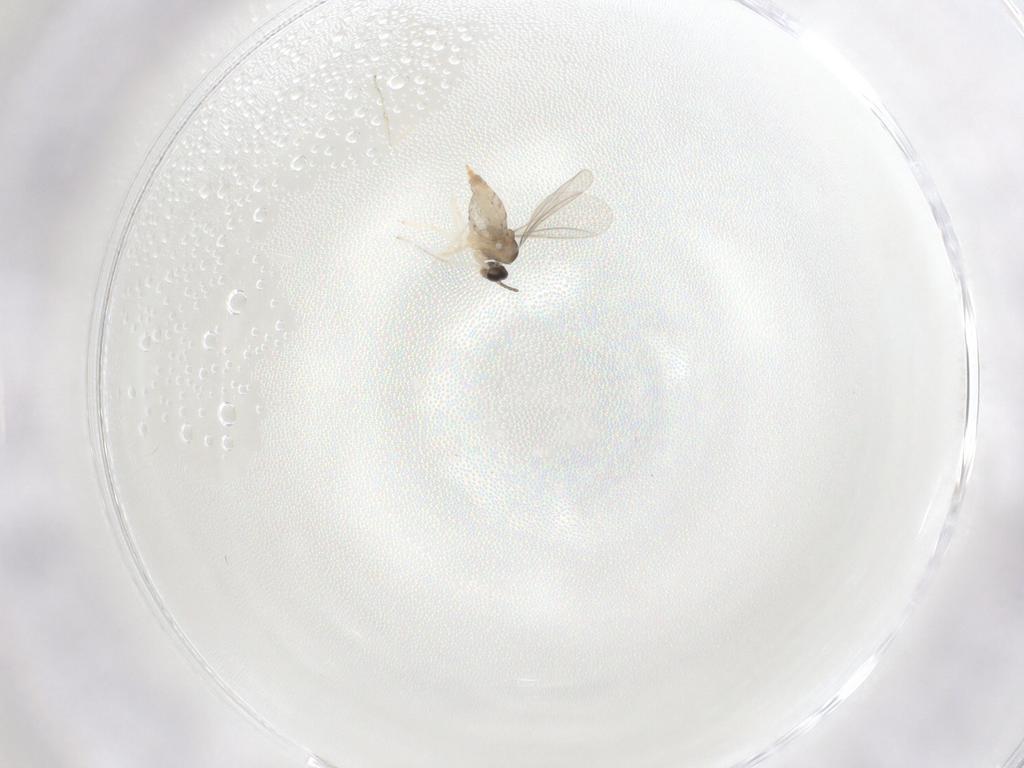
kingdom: Animalia
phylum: Arthropoda
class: Insecta
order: Diptera
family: Cecidomyiidae
